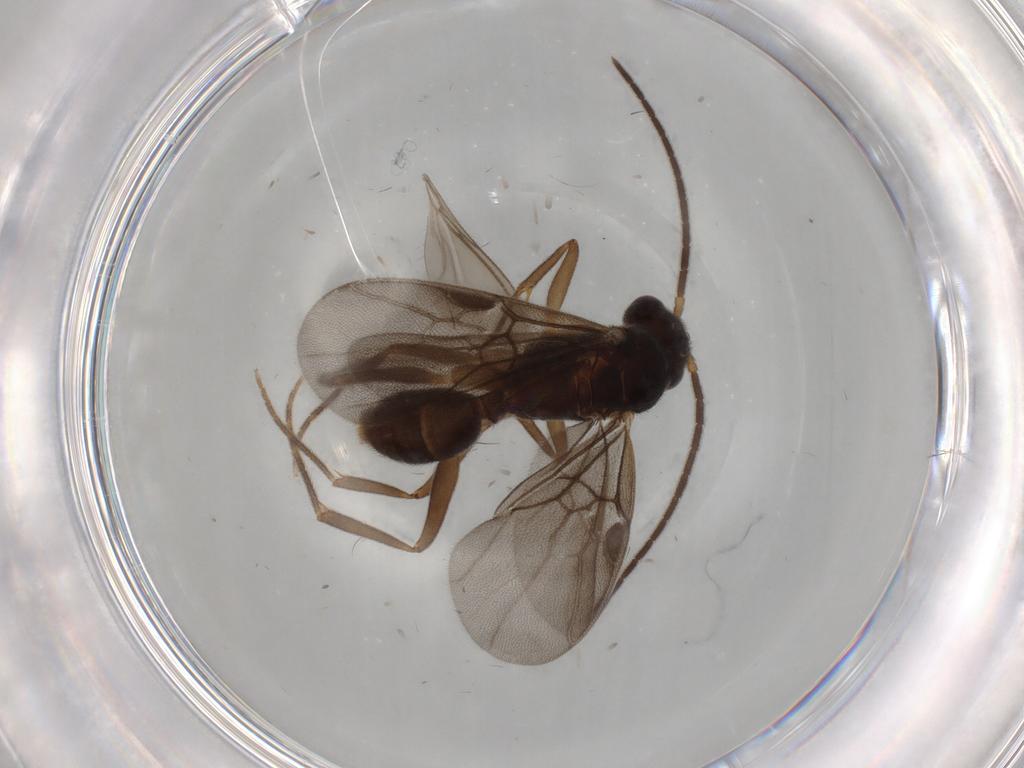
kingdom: Animalia
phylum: Arthropoda
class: Insecta
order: Hymenoptera
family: Formicidae
